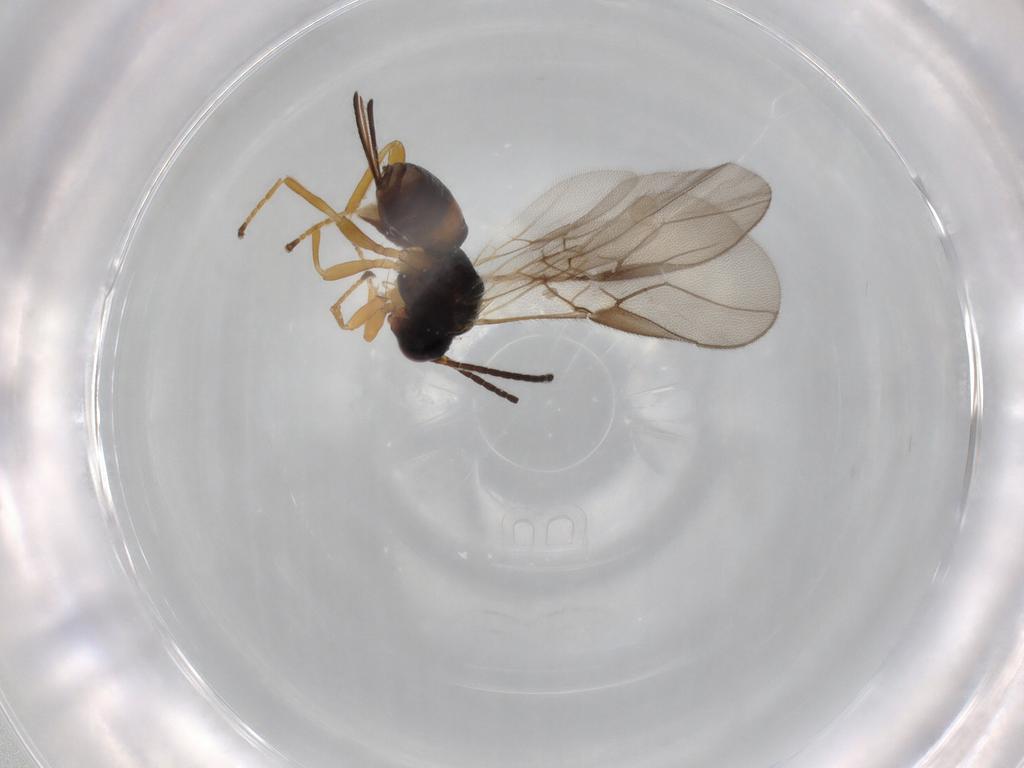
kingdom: Animalia
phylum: Arthropoda
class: Insecta
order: Hymenoptera
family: Braconidae
